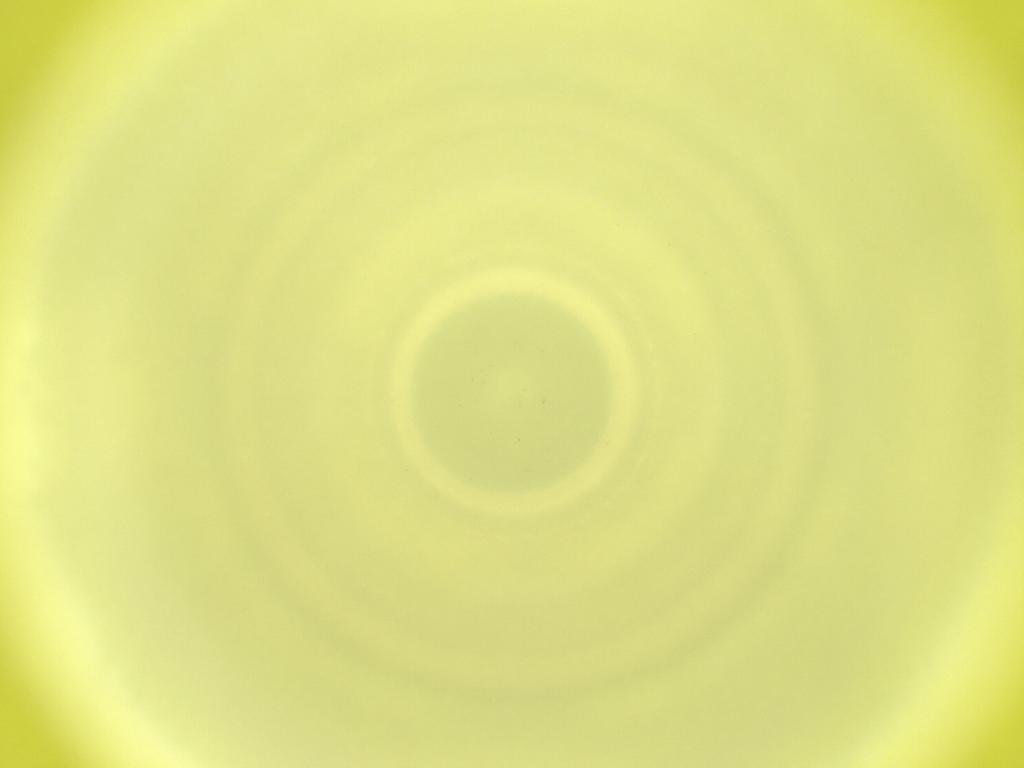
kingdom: Animalia
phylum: Arthropoda
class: Insecta
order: Diptera
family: Cecidomyiidae
